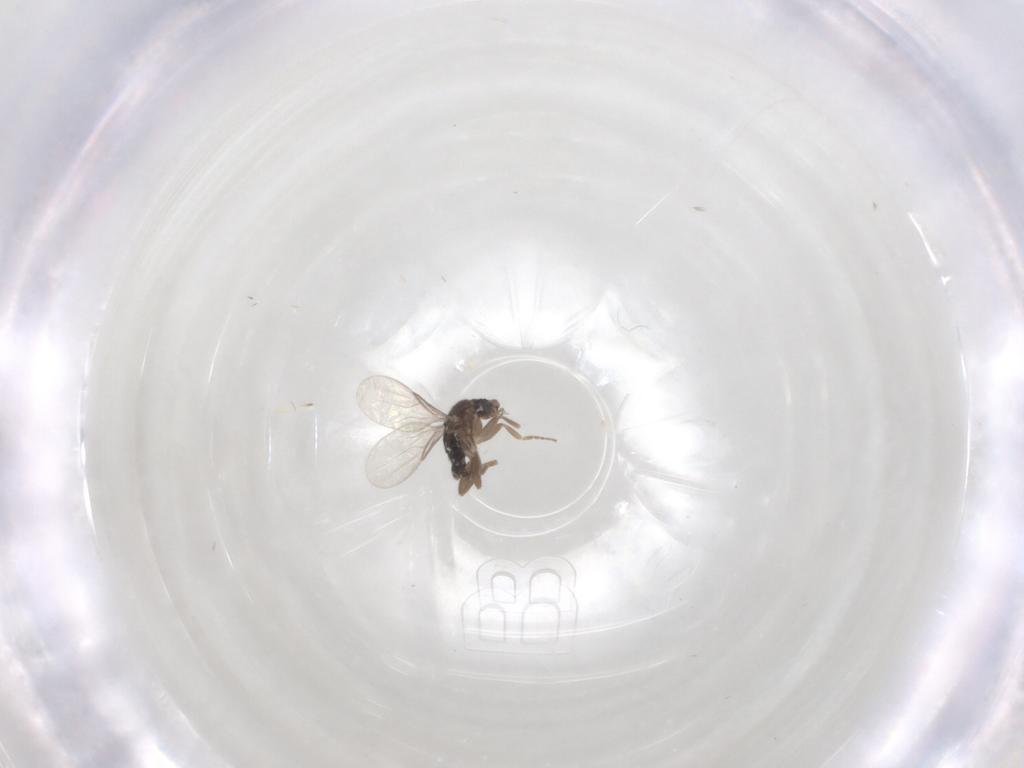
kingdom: Animalia
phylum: Arthropoda
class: Insecta
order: Diptera
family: Phoridae
